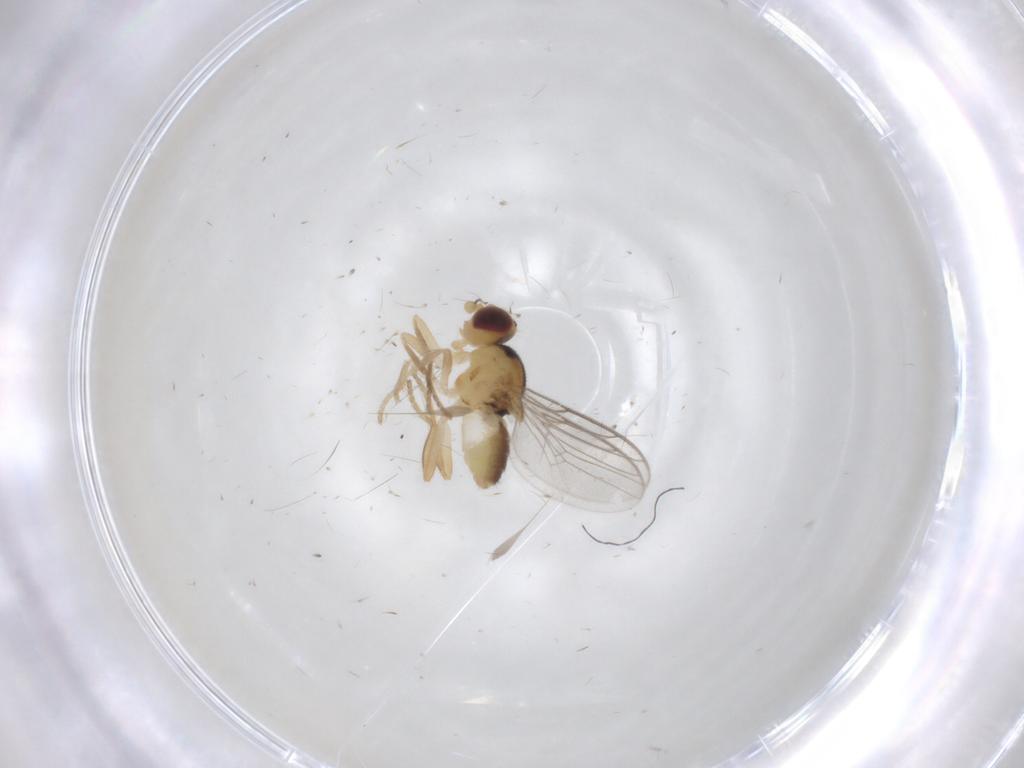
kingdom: Animalia
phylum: Arthropoda
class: Insecta
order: Diptera
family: Chloropidae
